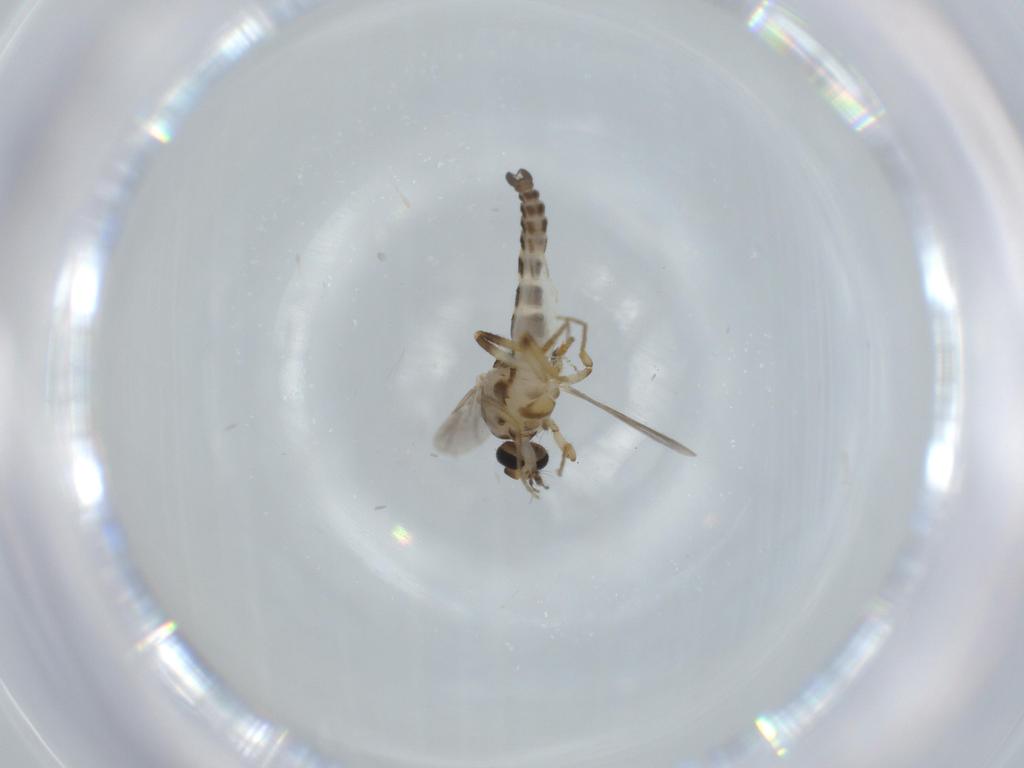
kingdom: Animalia
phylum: Arthropoda
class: Insecta
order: Diptera
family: Ceratopogonidae
